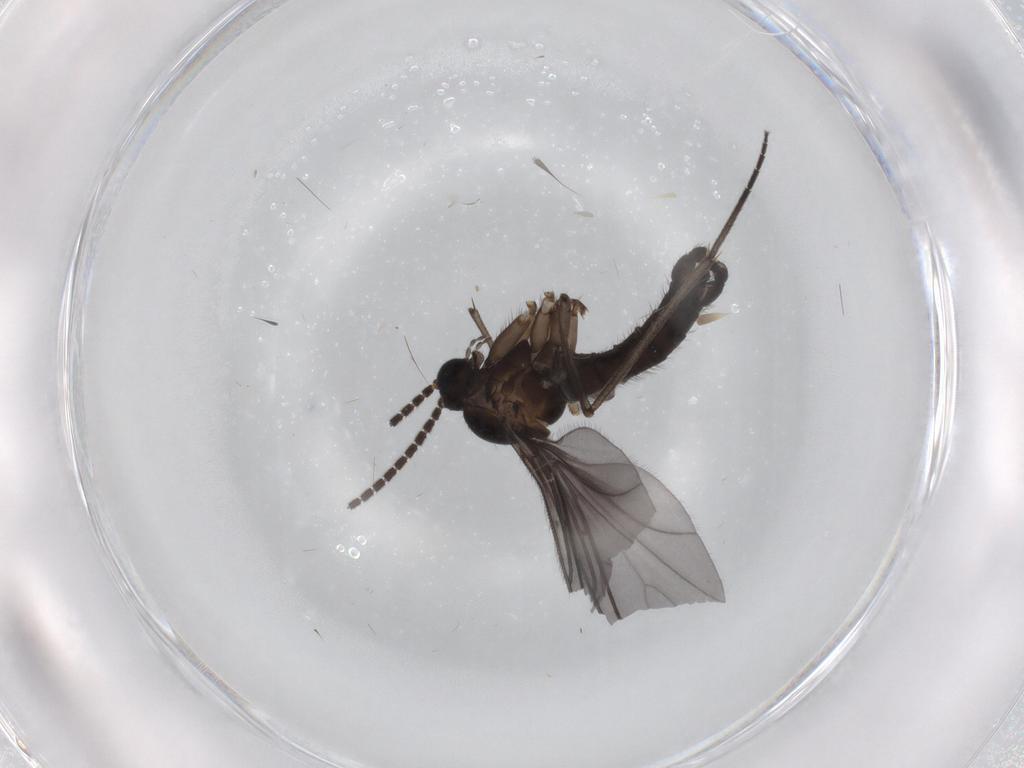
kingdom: Animalia
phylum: Arthropoda
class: Insecta
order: Diptera
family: Sciaridae
